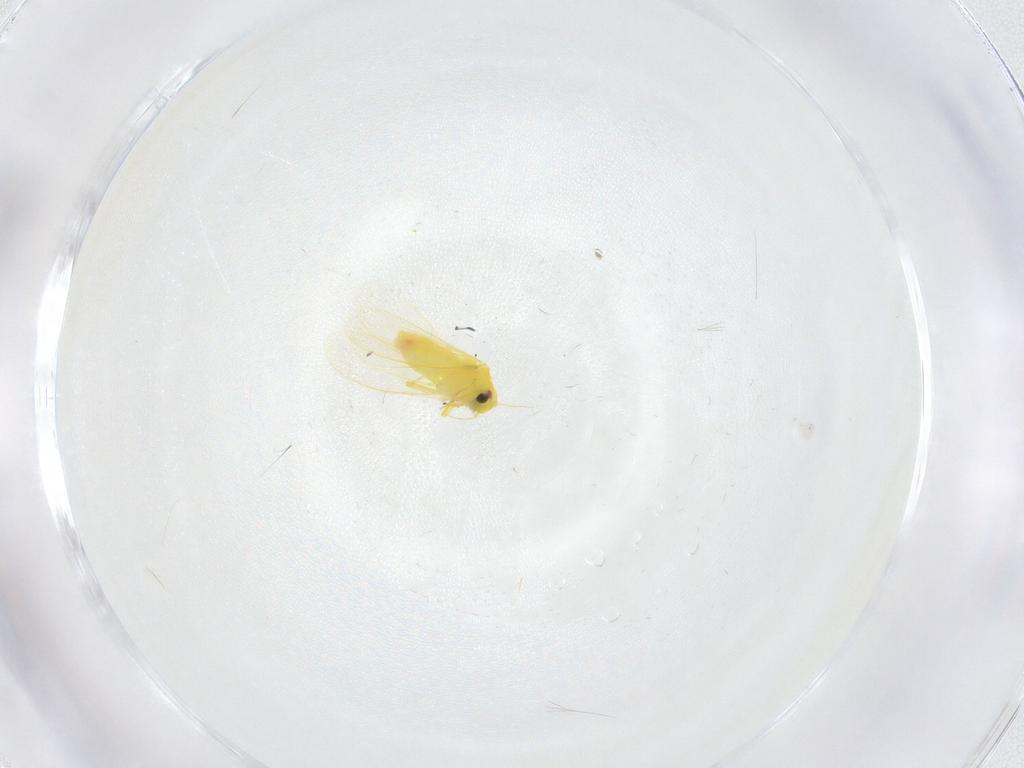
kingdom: Animalia
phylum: Arthropoda
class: Insecta
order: Hemiptera
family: Aleyrodidae
